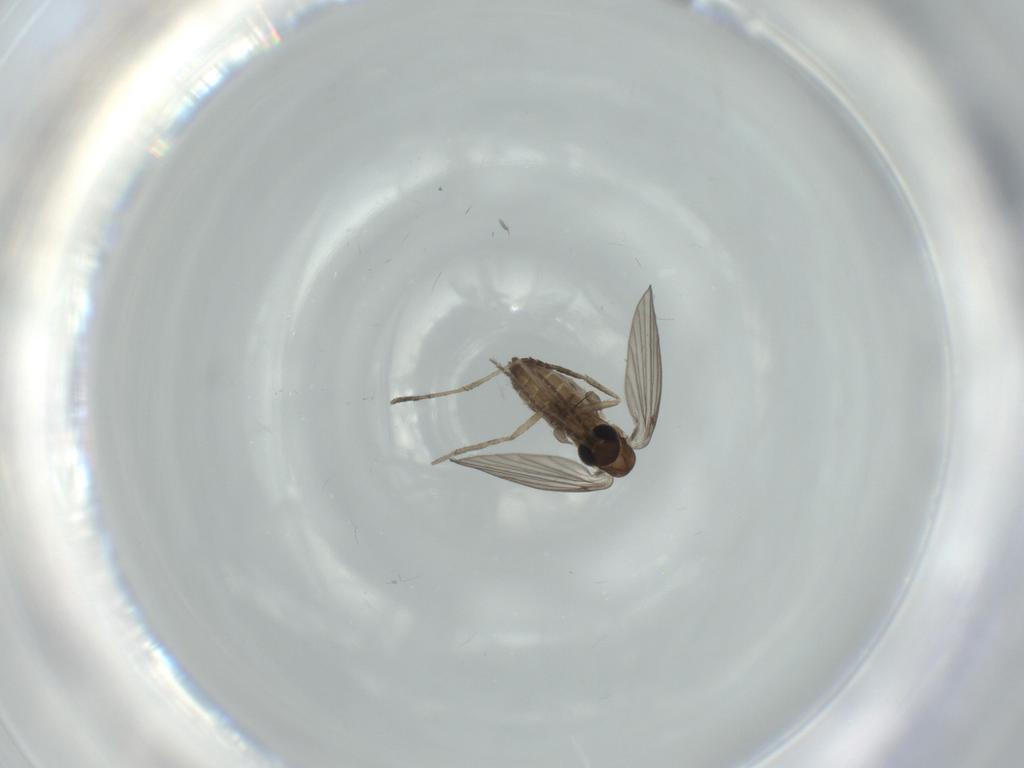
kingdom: Animalia
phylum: Arthropoda
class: Insecta
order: Diptera
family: Psychodidae
